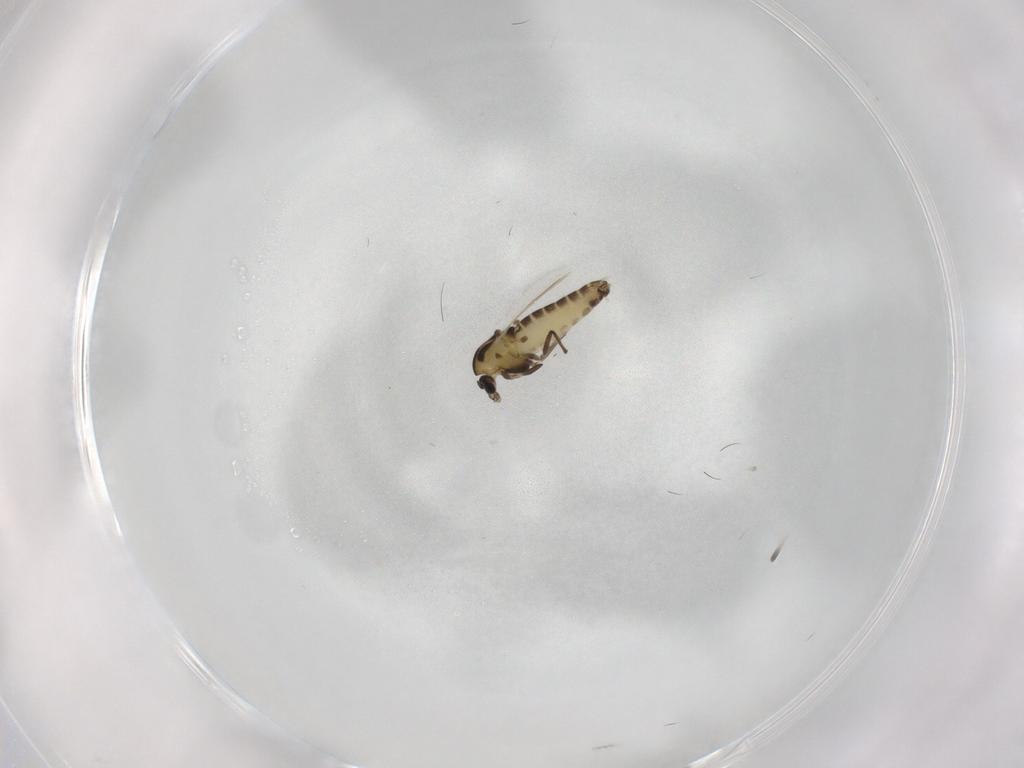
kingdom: Animalia
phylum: Arthropoda
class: Insecta
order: Diptera
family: Chironomidae
